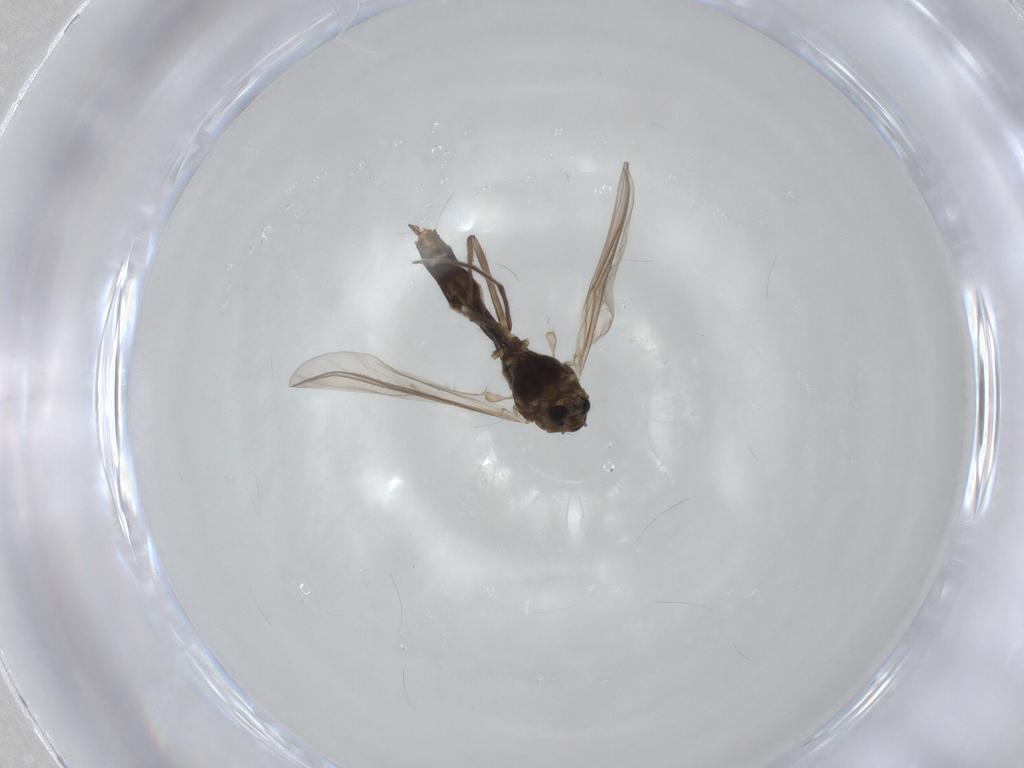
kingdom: Animalia
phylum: Arthropoda
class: Insecta
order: Diptera
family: Chironomidae
